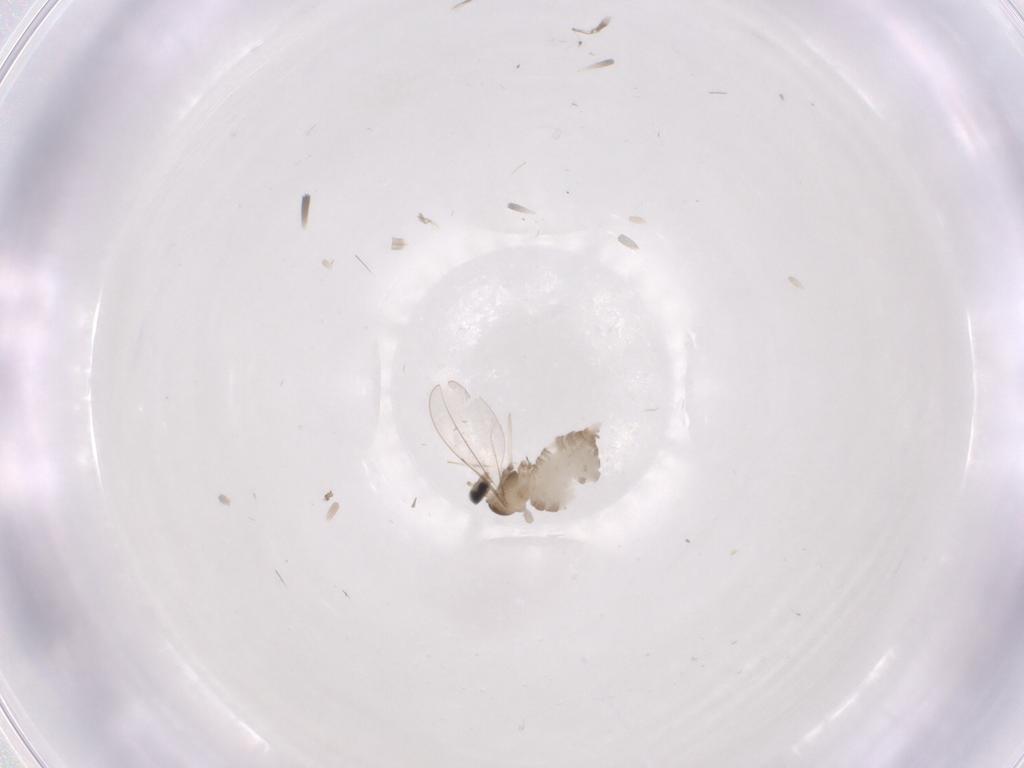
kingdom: Animalia
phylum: Arthropoda
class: Insecta
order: Diptera
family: Cecidomyiidae
